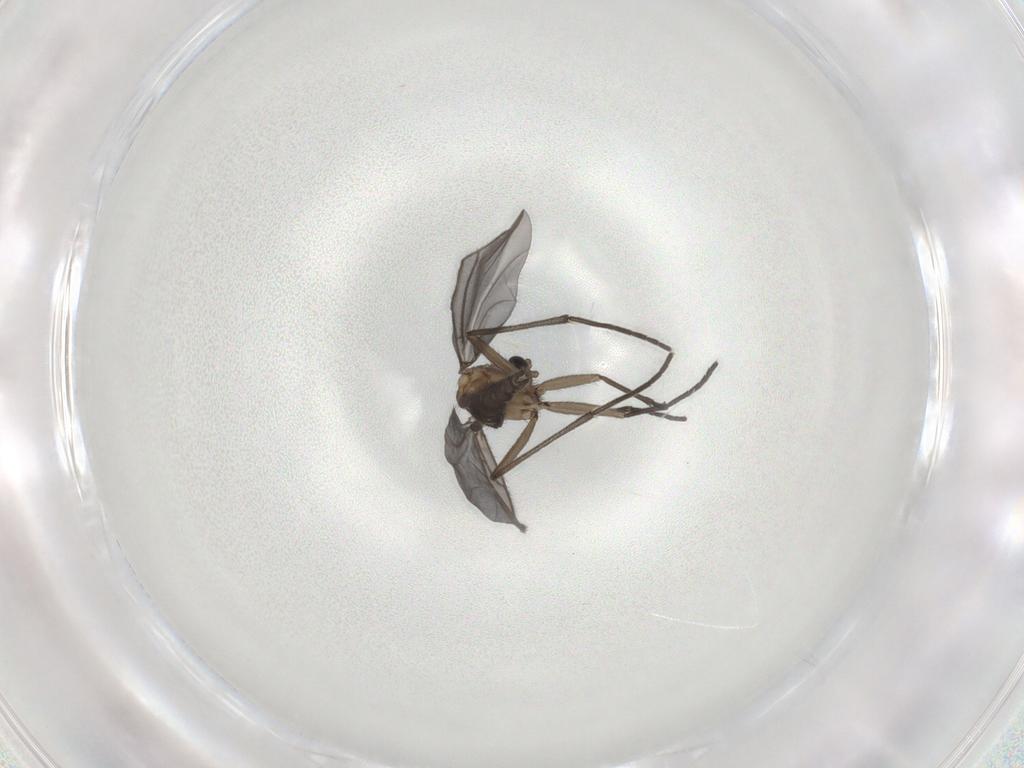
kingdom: Animalia
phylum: Arthropoda
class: Insecta
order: Diptera
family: Sciaridae
